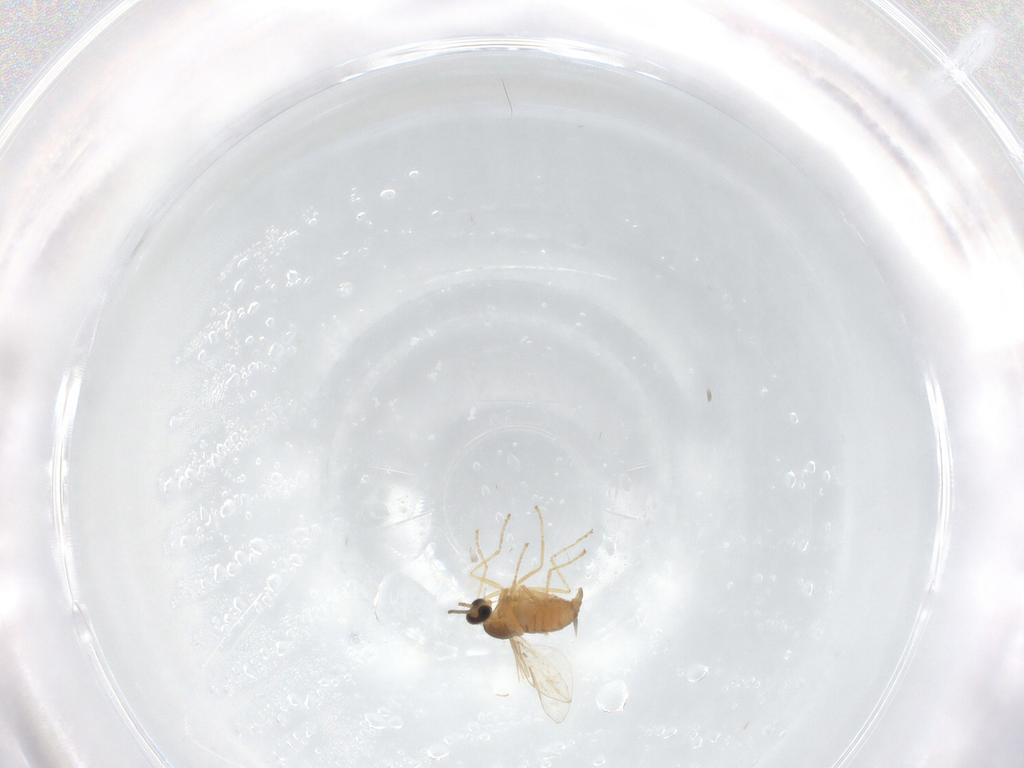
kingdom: Animalia
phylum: Arthropoda
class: Insecta
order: Diptera
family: Cecidomyiidae
